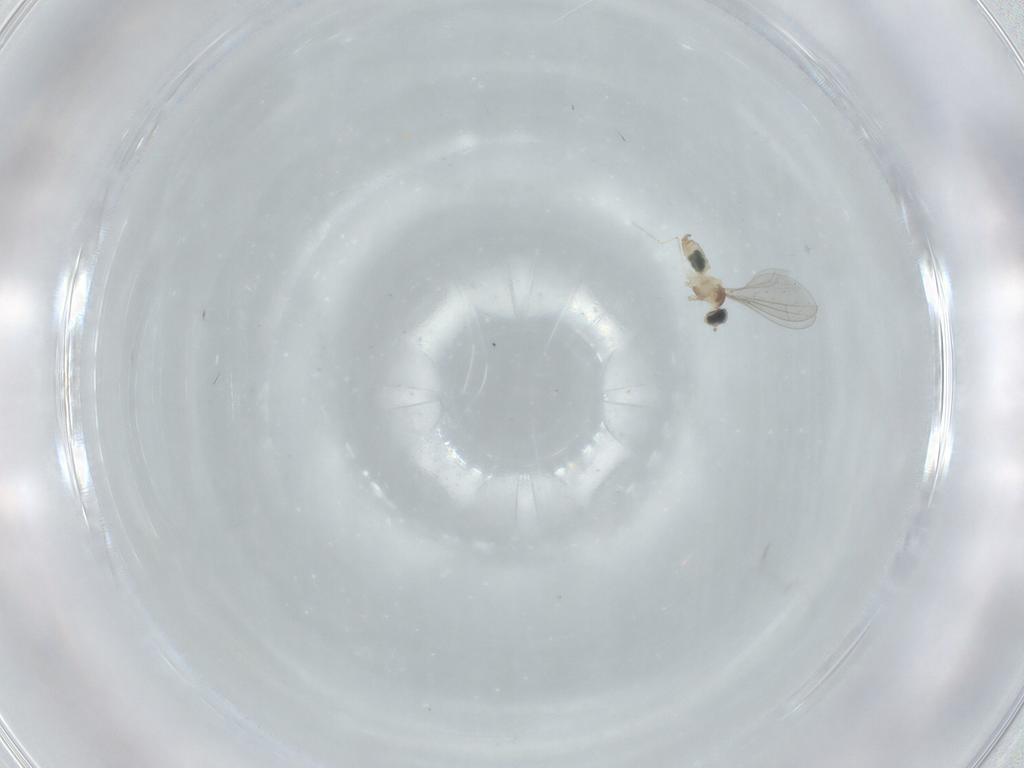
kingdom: Animalia
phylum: Arthropoda
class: Insecta
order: Diptera
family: Cecidomyiidae
